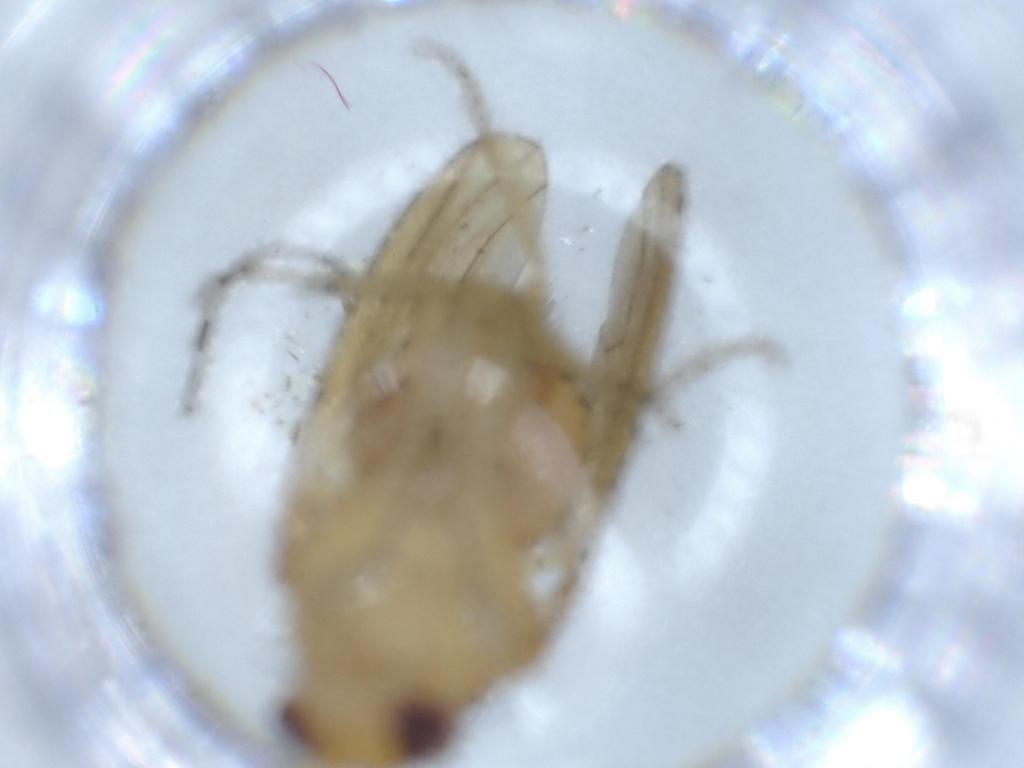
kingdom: Animalia
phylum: Arthropoda
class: Insecta
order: Diptera
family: Sciaridae
